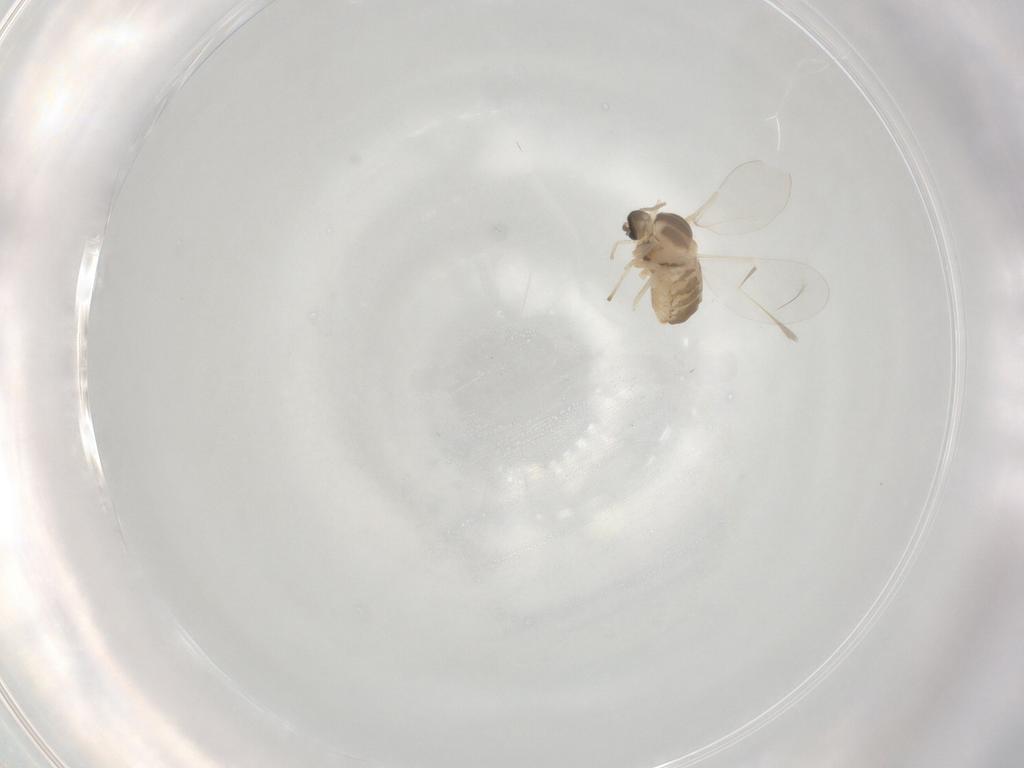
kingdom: Animalia
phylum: Arthropoda
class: Insecta
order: Diptera
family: Cecidomyiidae
